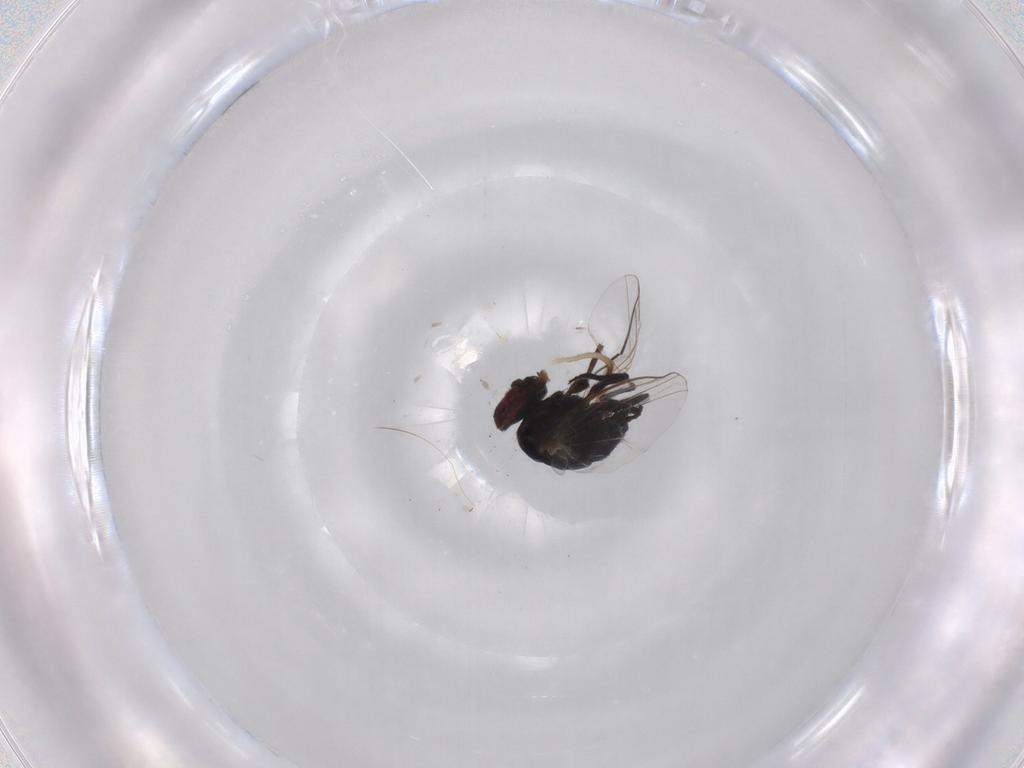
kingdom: Animalia
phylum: Arthropoda
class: Insecta
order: Diptera
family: Agromyzidae
